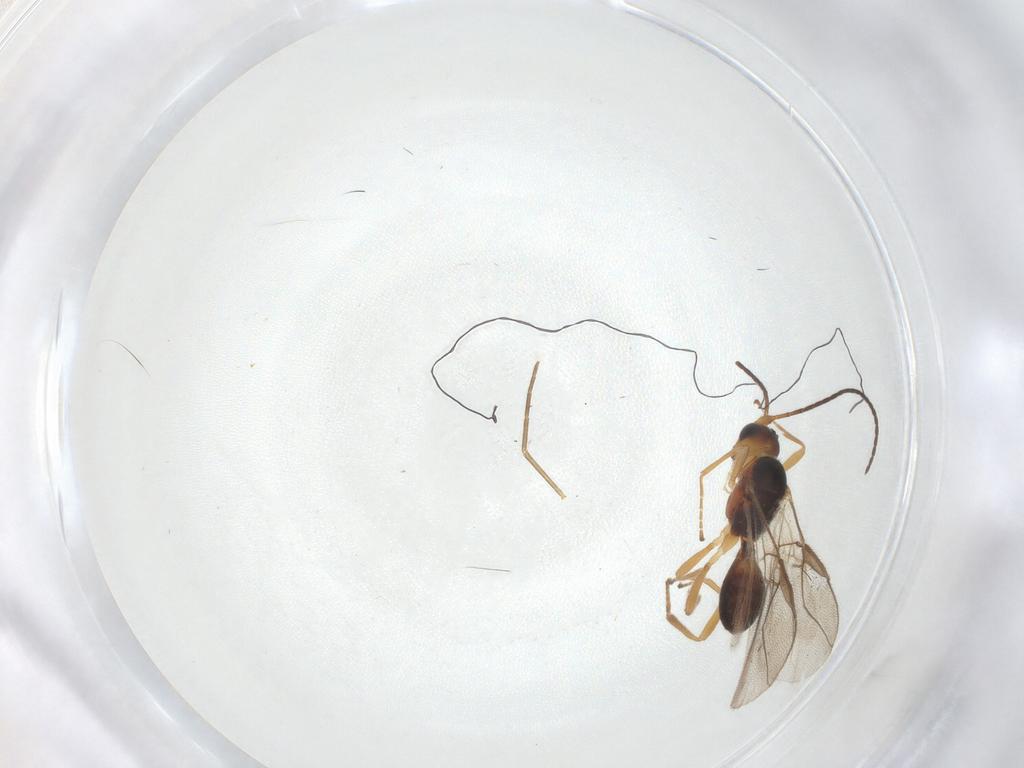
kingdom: Animalia
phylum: Arthropoda
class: Insecta
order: Hymenoptera
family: Braconidae
